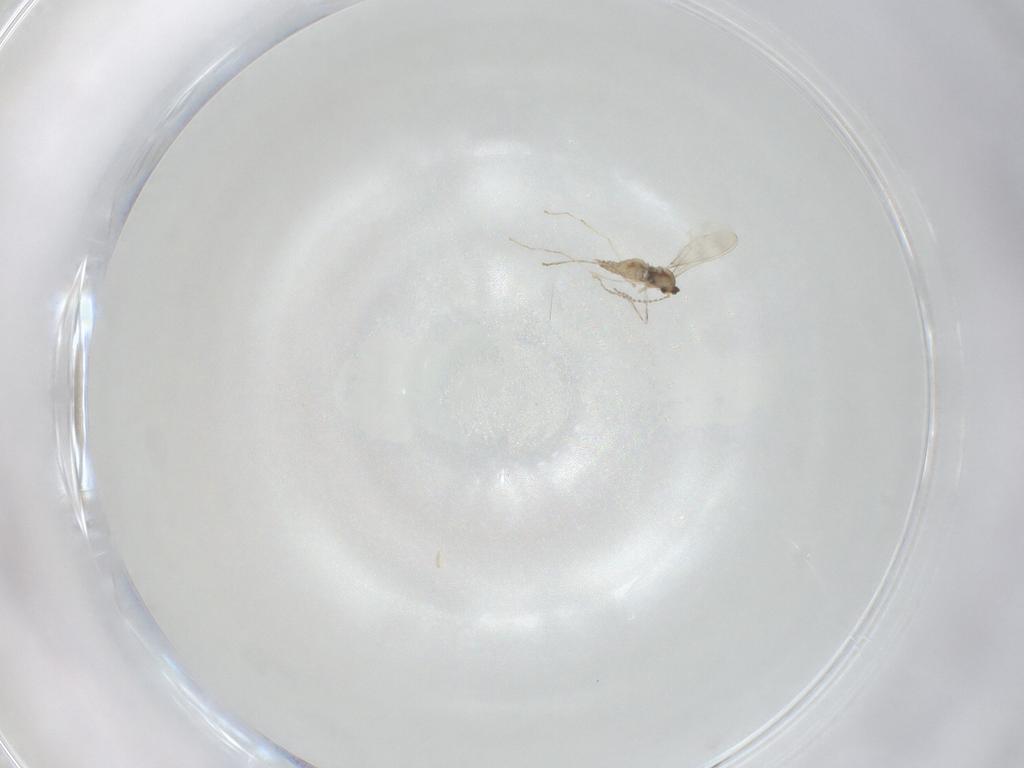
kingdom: Animalia
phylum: Arthropoda
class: Insecta
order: Diptera
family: Cecidomyiidae
